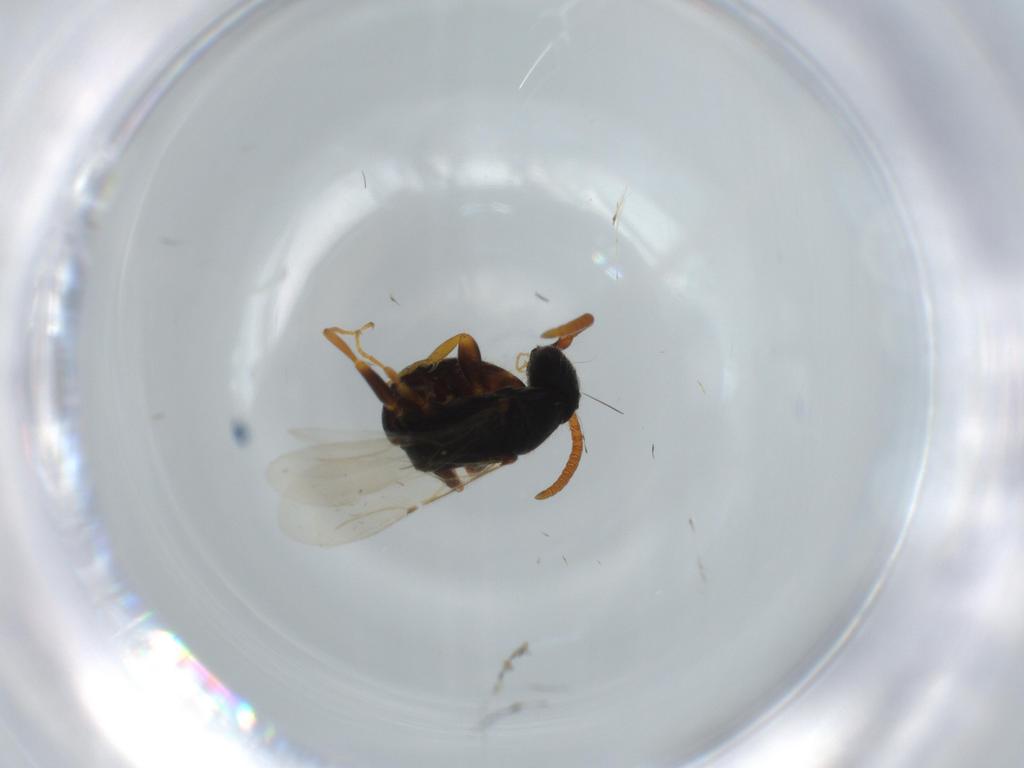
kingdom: Animalia
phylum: Arthropoda
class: Insecta
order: Hymenoptera
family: Bethylidae
